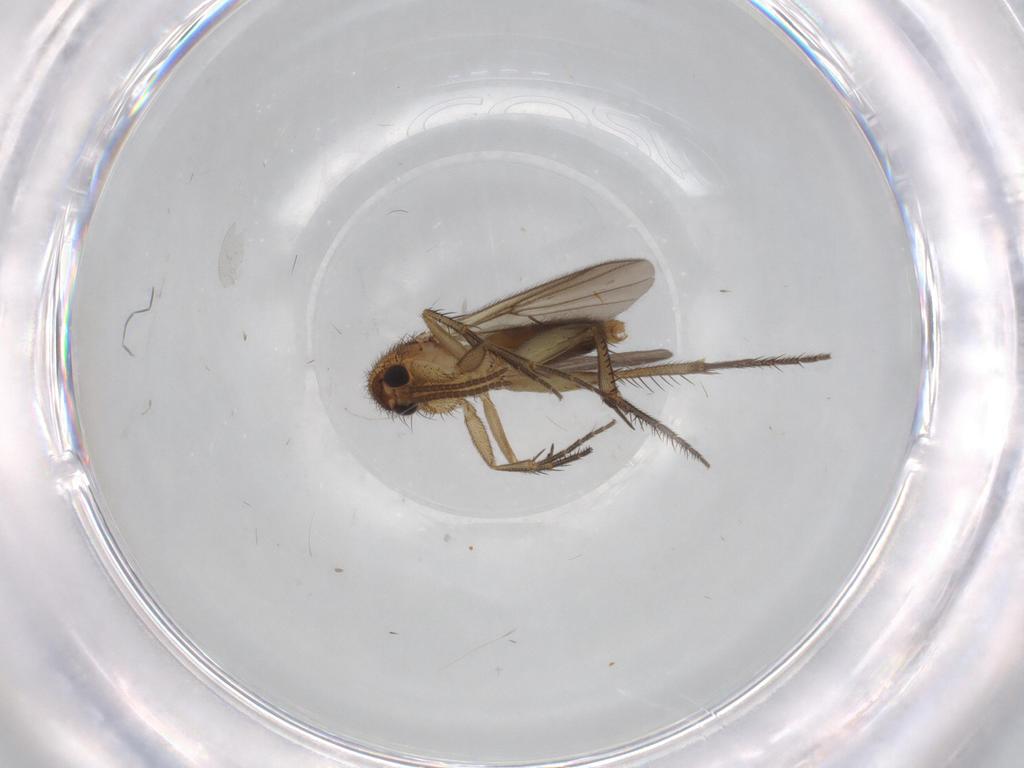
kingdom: Animalia
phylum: Arthropoda
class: Insecta
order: Diptera
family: Mycetophilidae
